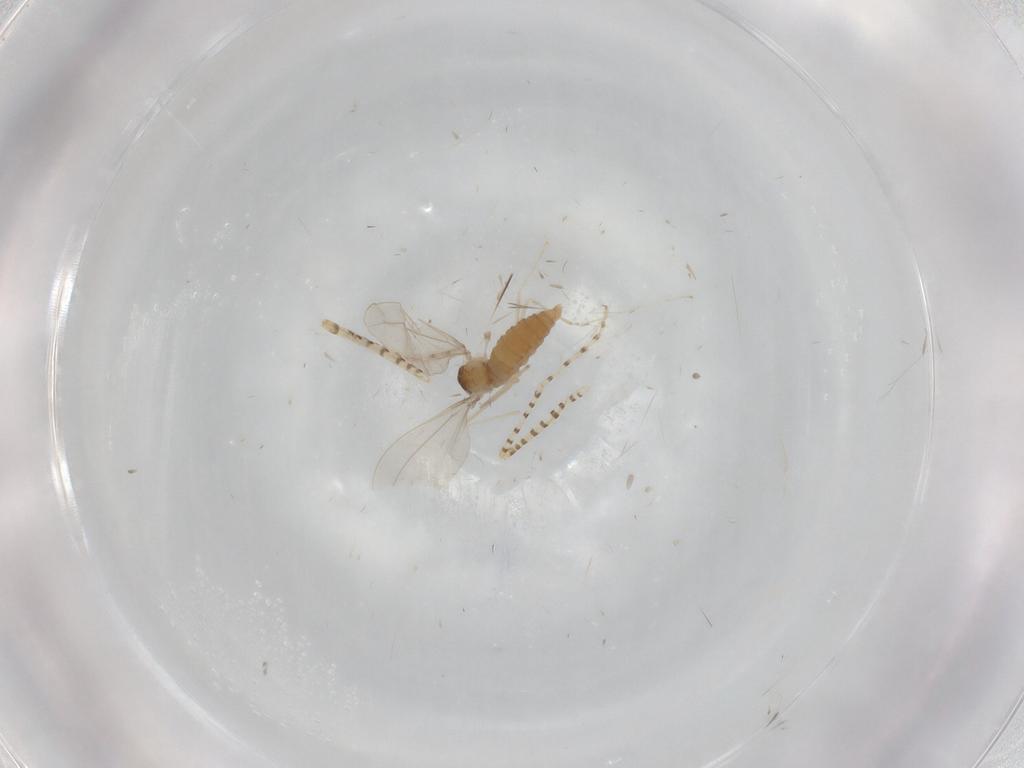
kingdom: Animalia
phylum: Arthropoda
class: Insecta
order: Diptera
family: Cecidomyiidae
